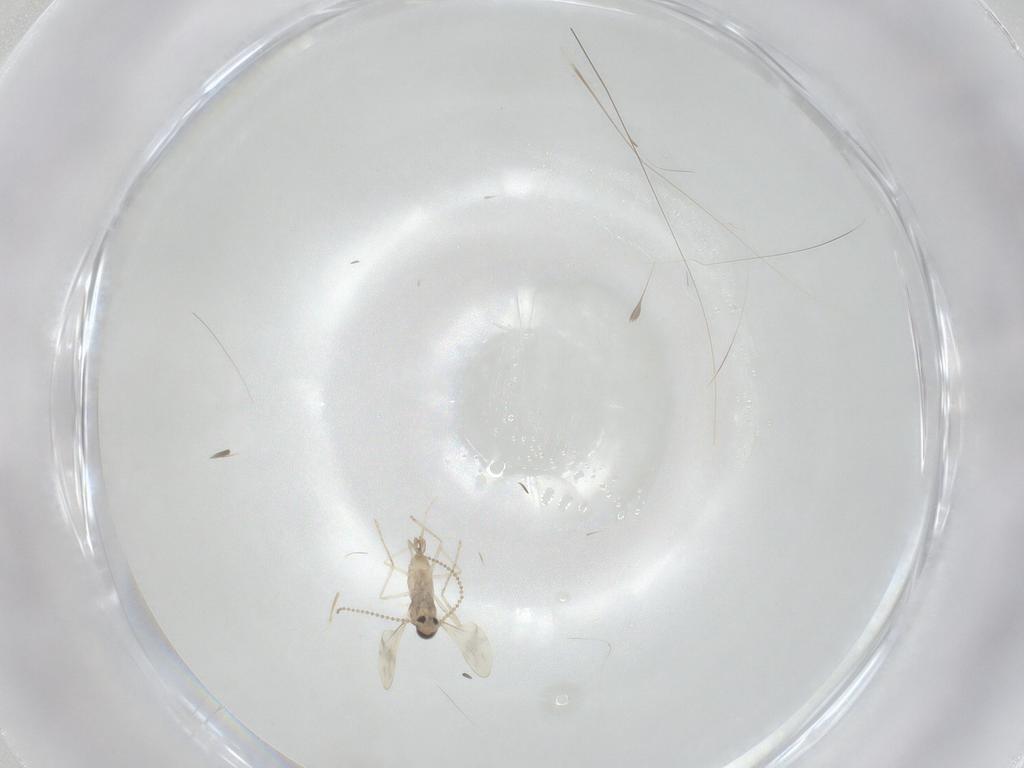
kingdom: Animalia
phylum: Arthropoda
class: Insecta
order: Diptera
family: Cecidomyiidae
